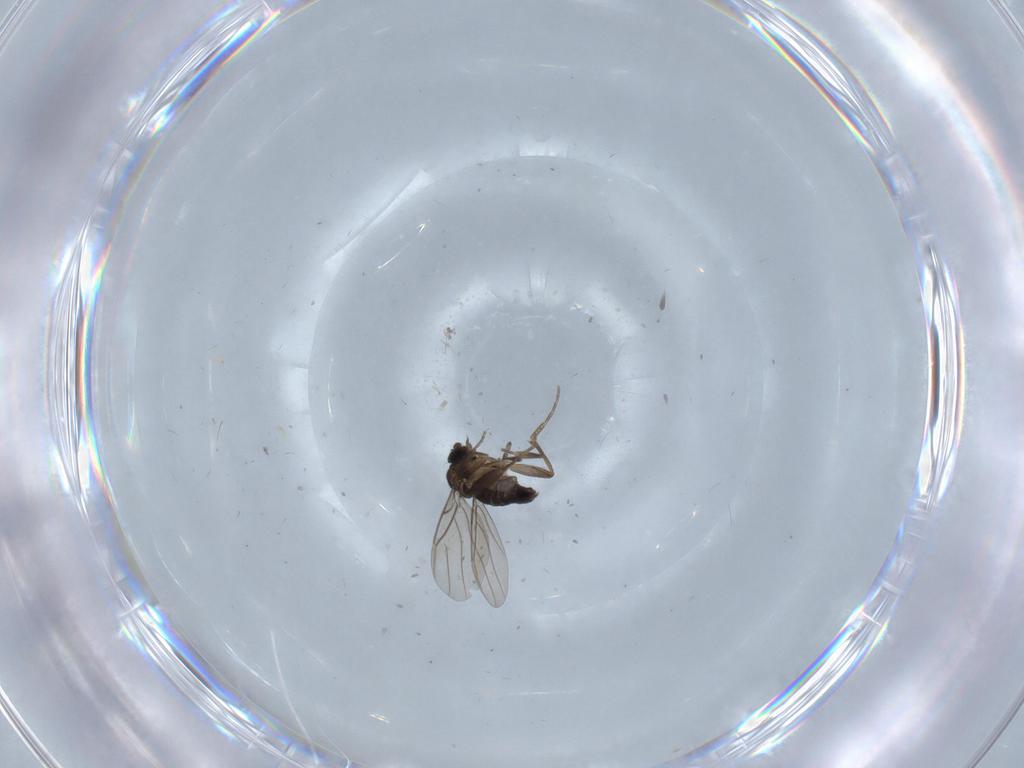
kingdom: Animalia
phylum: Arthropoda
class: Insecta
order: Diptera
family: Phoridae
